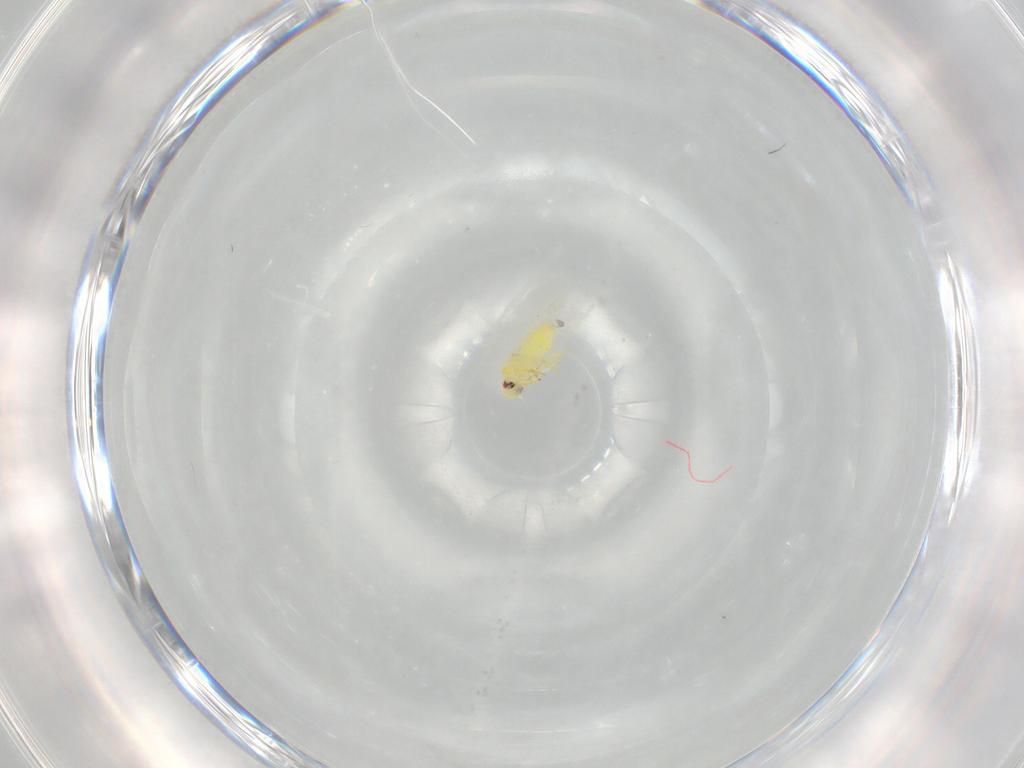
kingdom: Animalia
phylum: Arthropoda
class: Insecta
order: Hemiptera
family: Aleyrodidae
